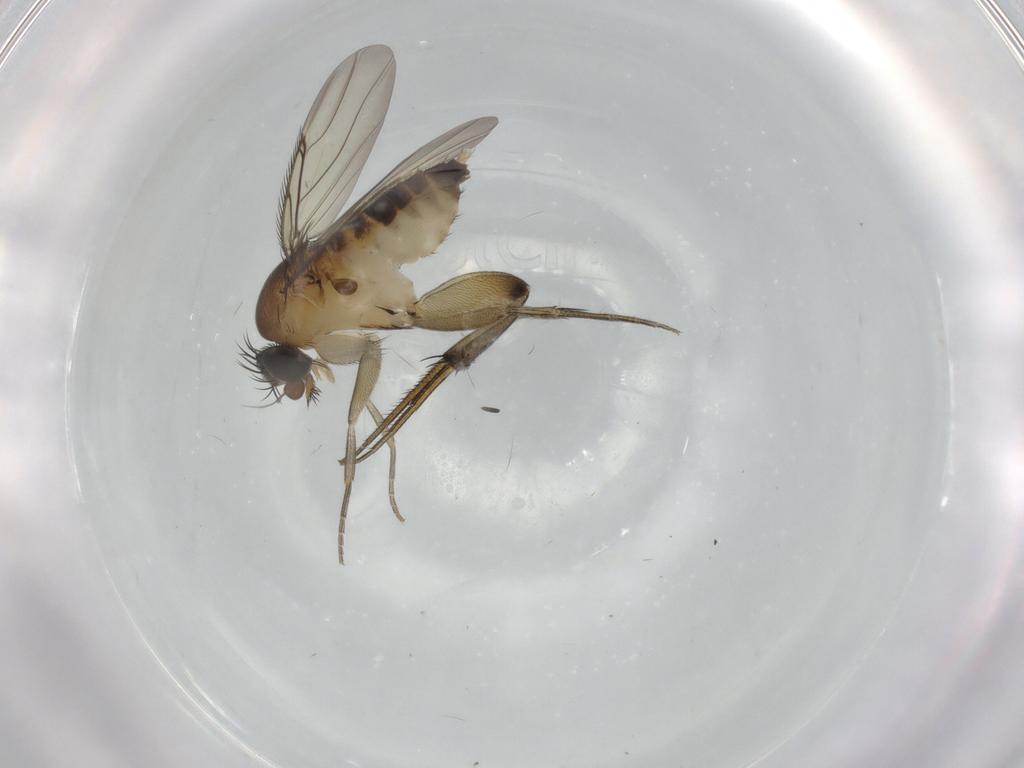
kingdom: Animalia
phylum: Arthropoda
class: Insecta
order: Diptera
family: Phoridae
